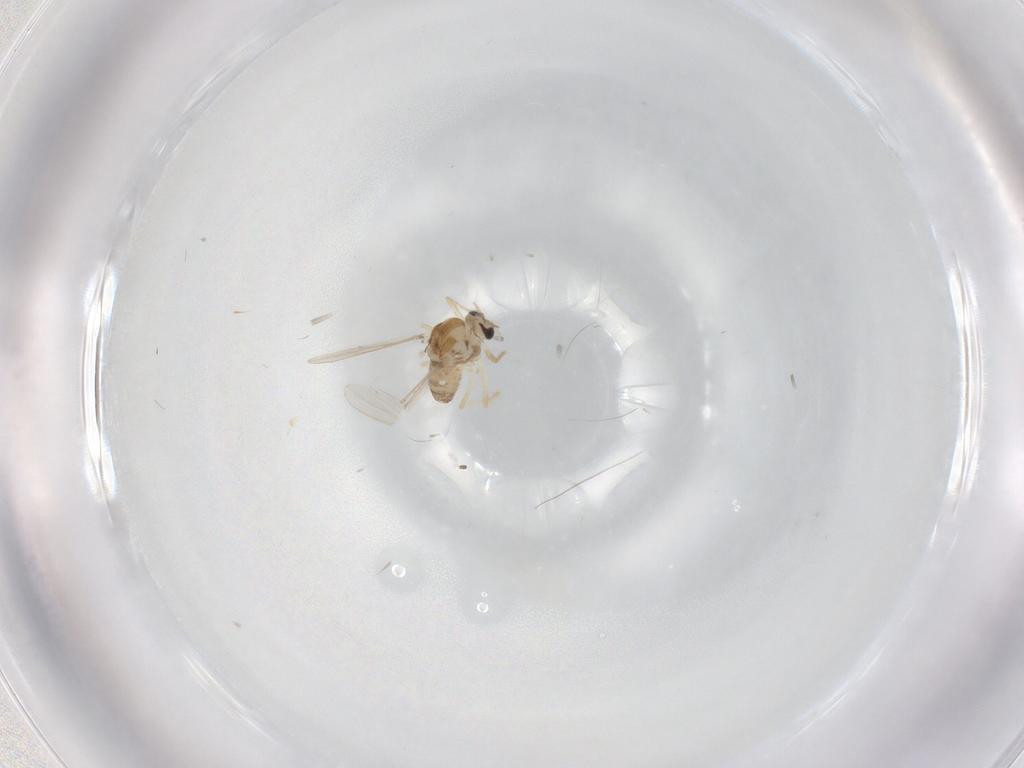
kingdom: Animalia
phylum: Arthropoda
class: Insecta
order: Diptera
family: Chironomidae
